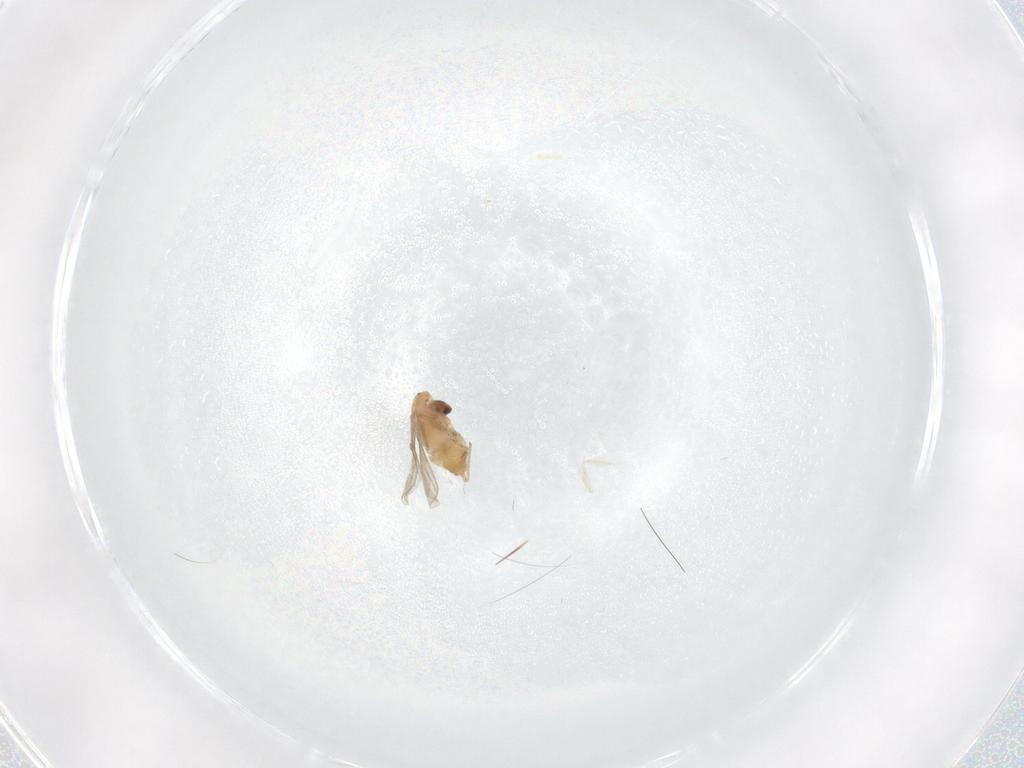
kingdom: Animalia
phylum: Arthropoda
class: Insecta
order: Diptera
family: Chironomidae
